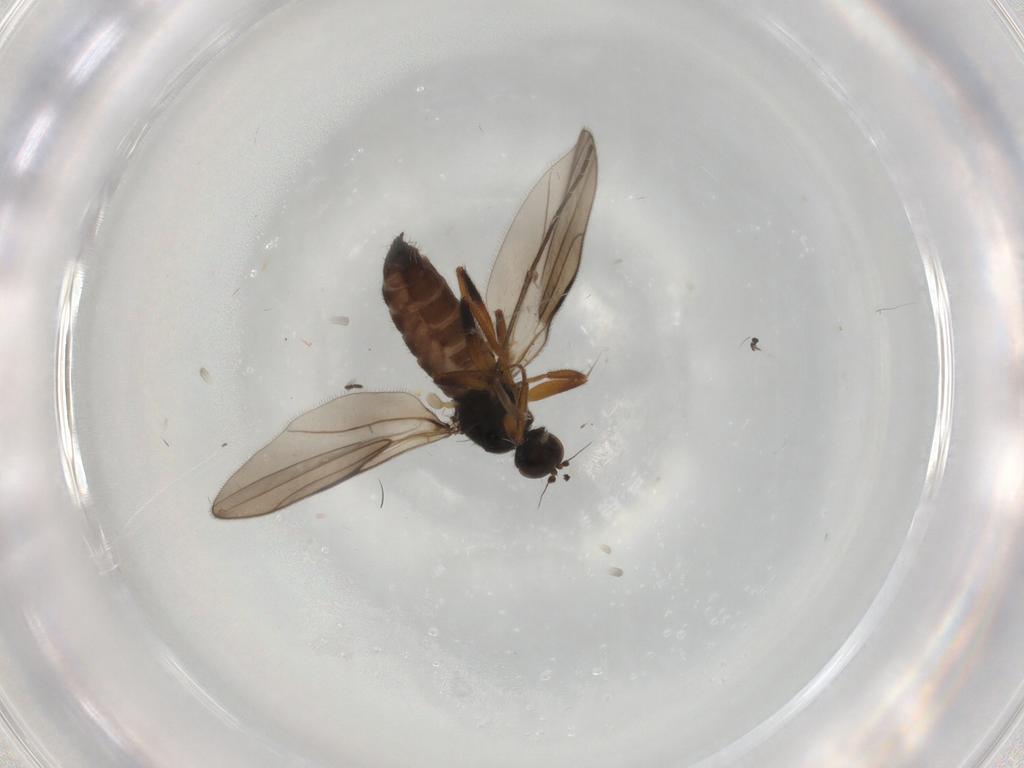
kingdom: Animalia
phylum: Arthropoda
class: Insecta
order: Diptera
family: Hybotidae
